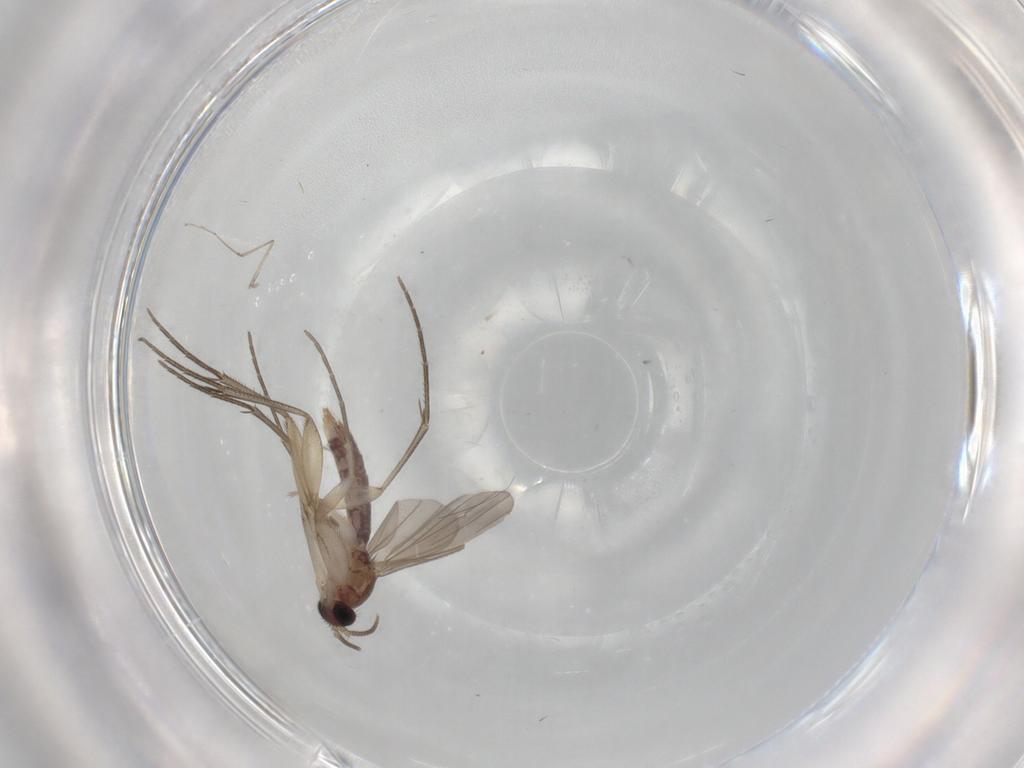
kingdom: Animalia
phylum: Arthropoda
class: Insecta
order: Diptera
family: Mycetophilidae
